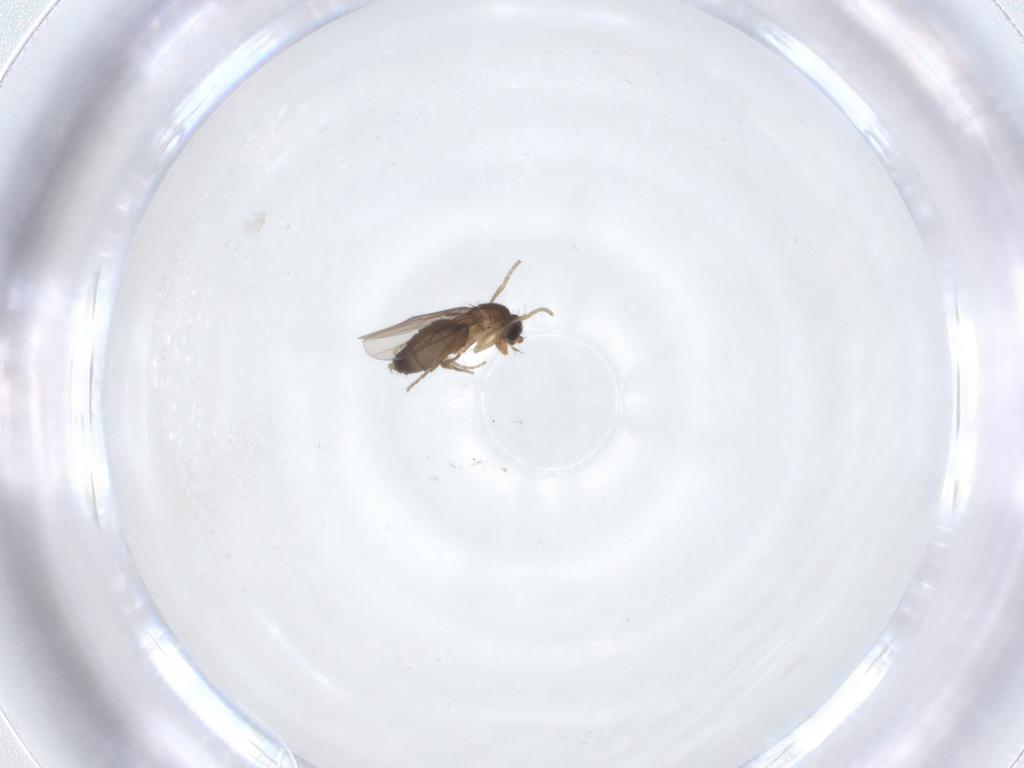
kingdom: Animalia
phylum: Arthropoda
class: Insecta
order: Diptera
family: Phoridae
